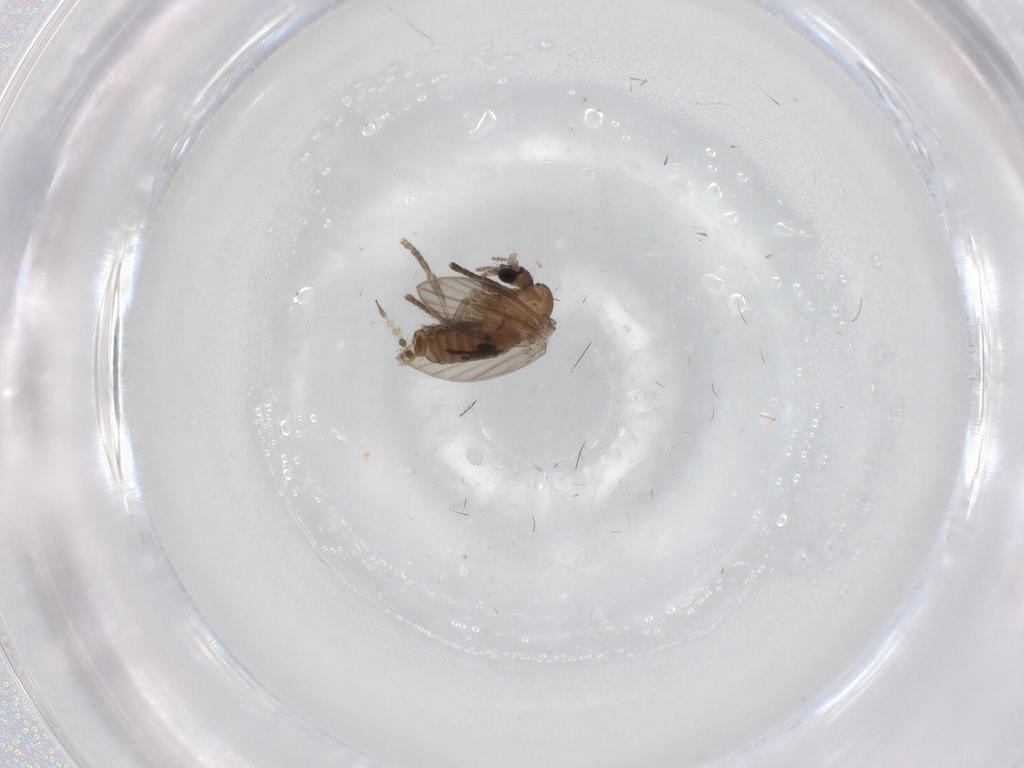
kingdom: Animalia
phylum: Arthropoda
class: Insecta
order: Diptera
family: Psychodidae
